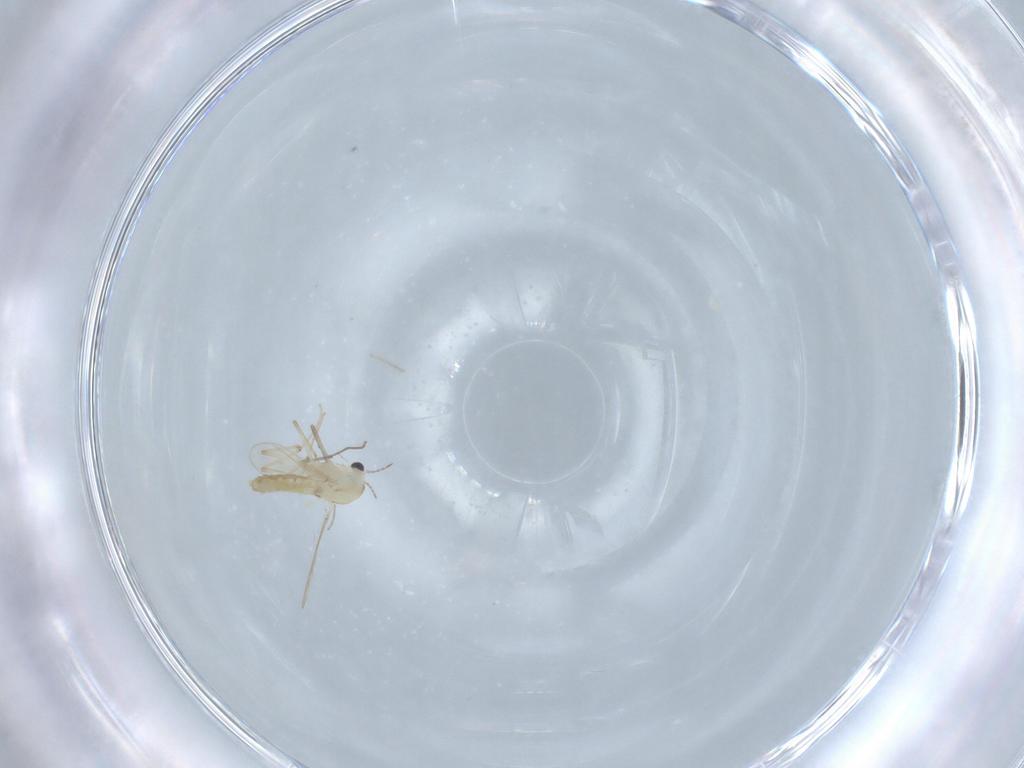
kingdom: Animalia
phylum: Arthropoda
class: Insecta
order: Diptera
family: Chironomidae
